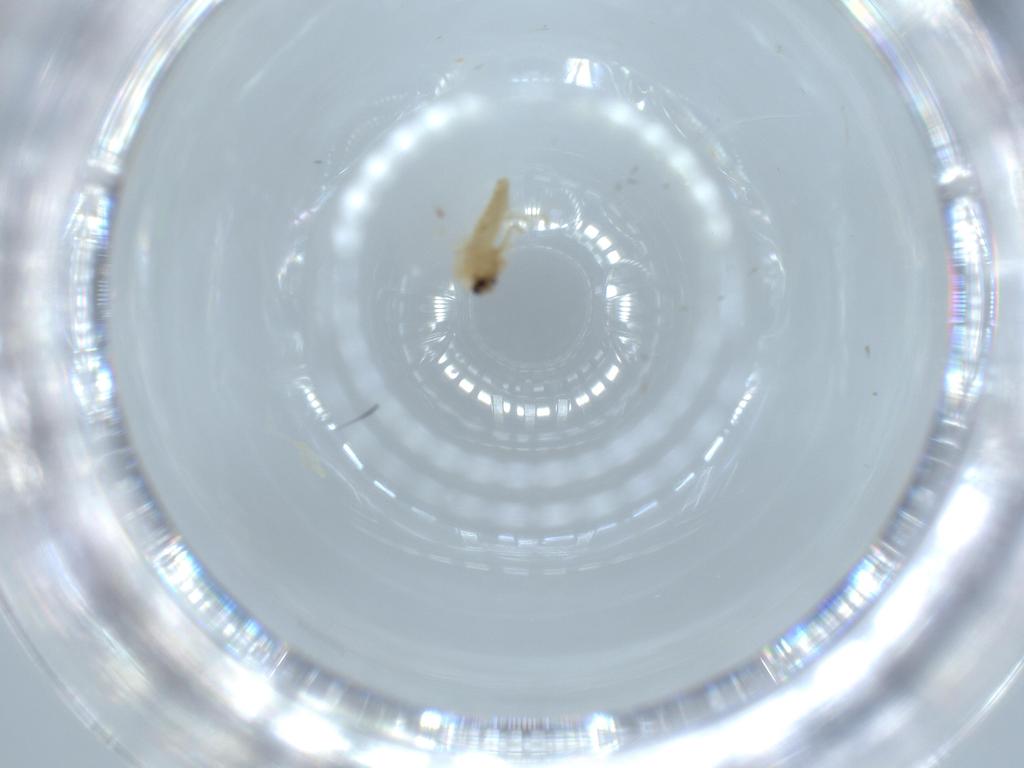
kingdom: Animalia
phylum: Arthropoda
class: Insecta
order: Diptera
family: Sciaridae
